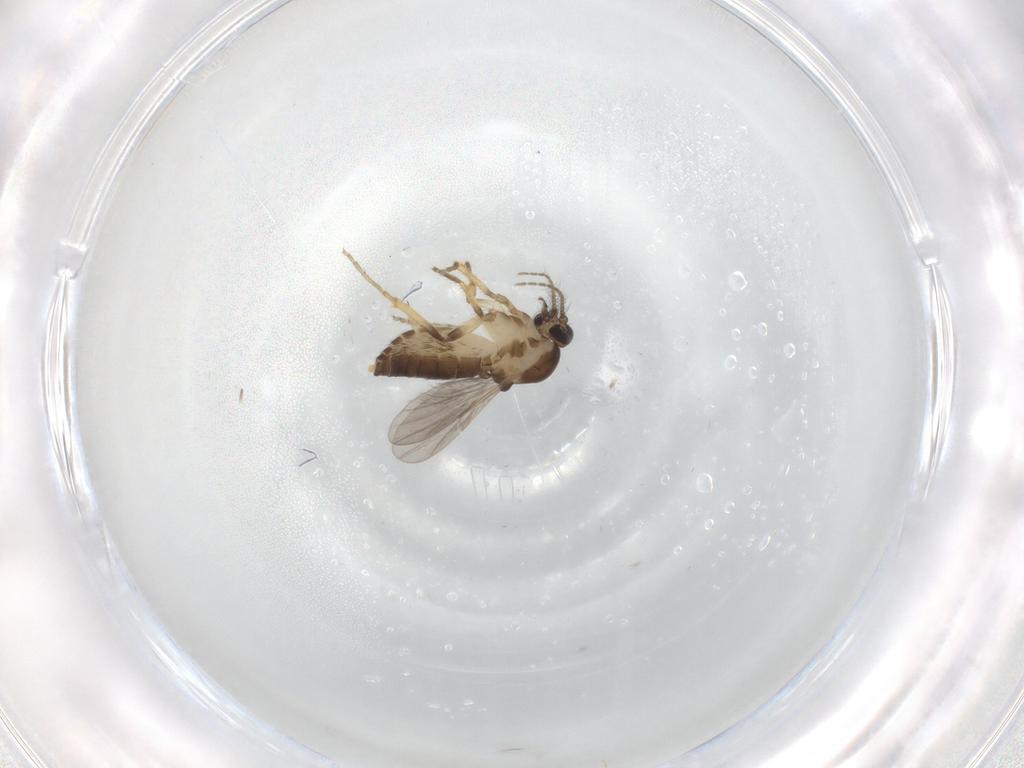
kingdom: Animalia
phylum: Arthropoda
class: Insecta
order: Diptera
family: Ceratopogonidae
